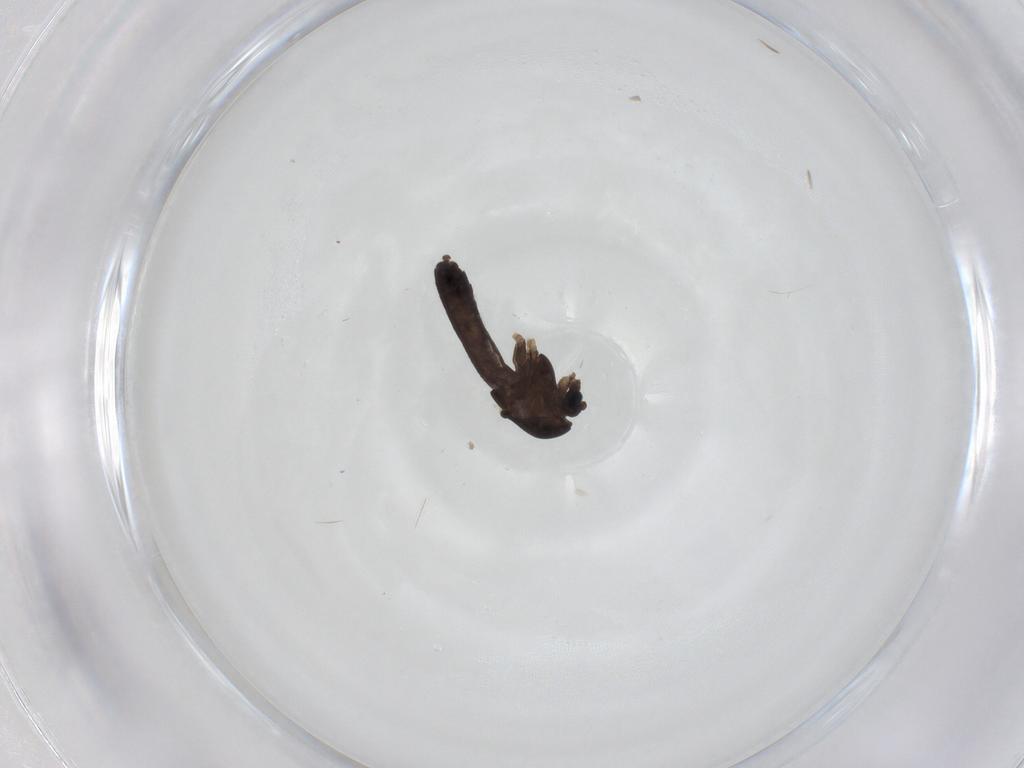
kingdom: Animalia
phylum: Arthropoda
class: Insecta
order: Diptera
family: Chironomidae
